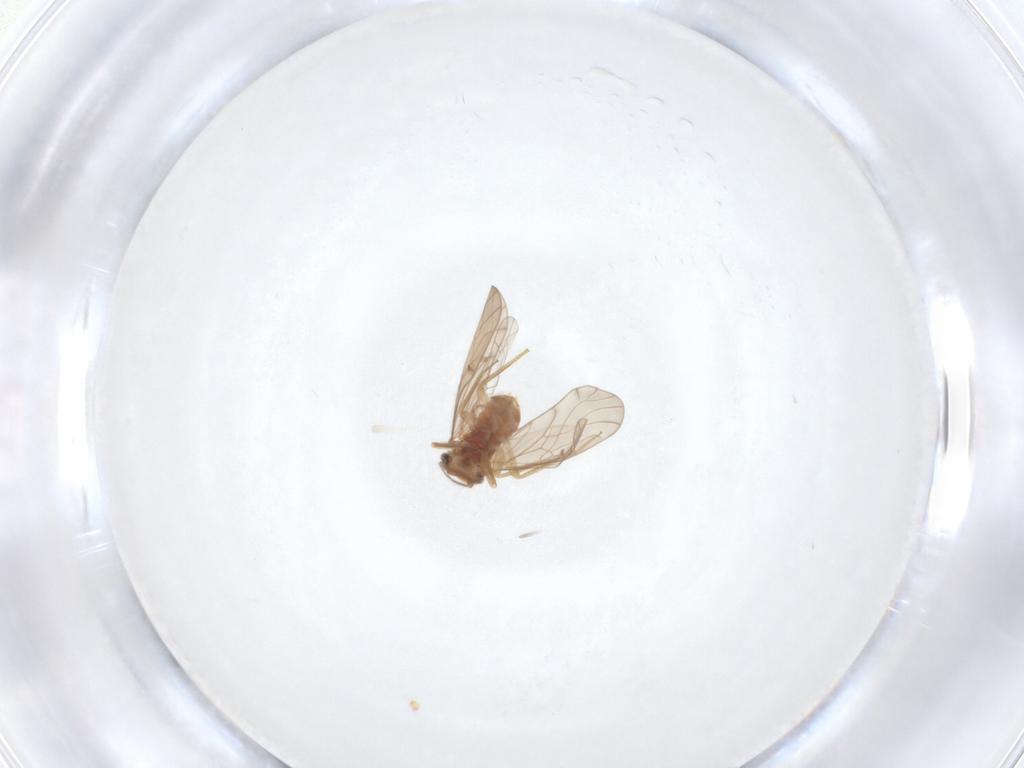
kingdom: Animalia
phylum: Arthropoda
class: Insecta
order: Psocodea
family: Ectopsocidae
